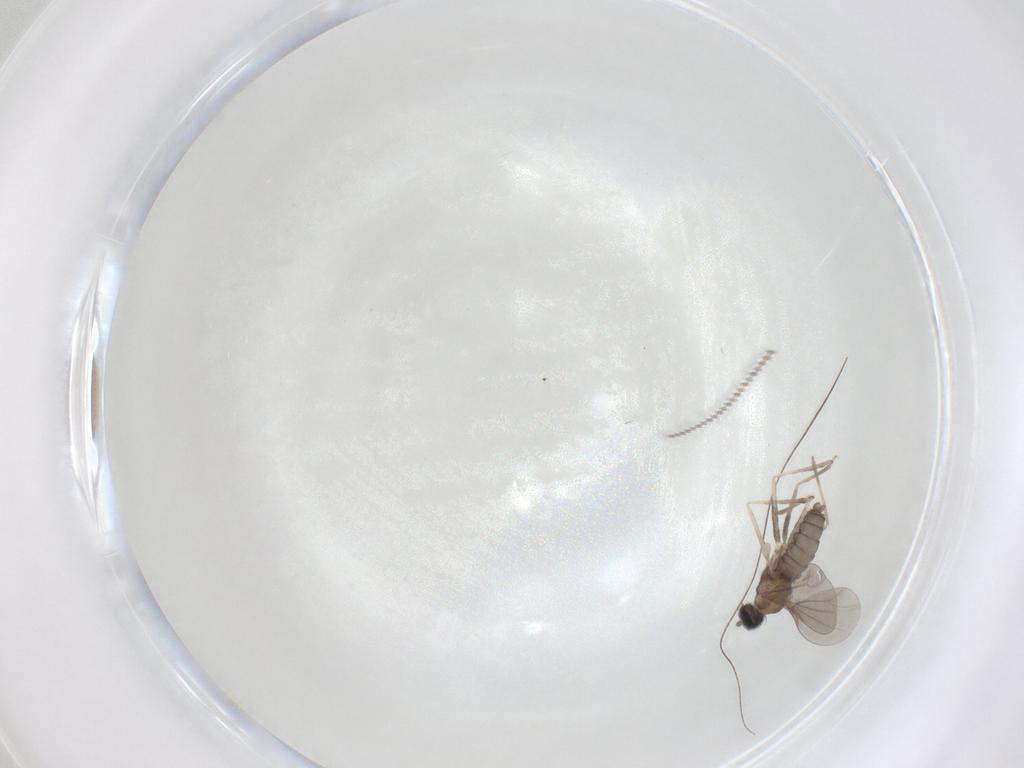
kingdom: Animalia
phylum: Arthropoda
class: Insecta
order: Diptera
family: Cecidomyiidae
